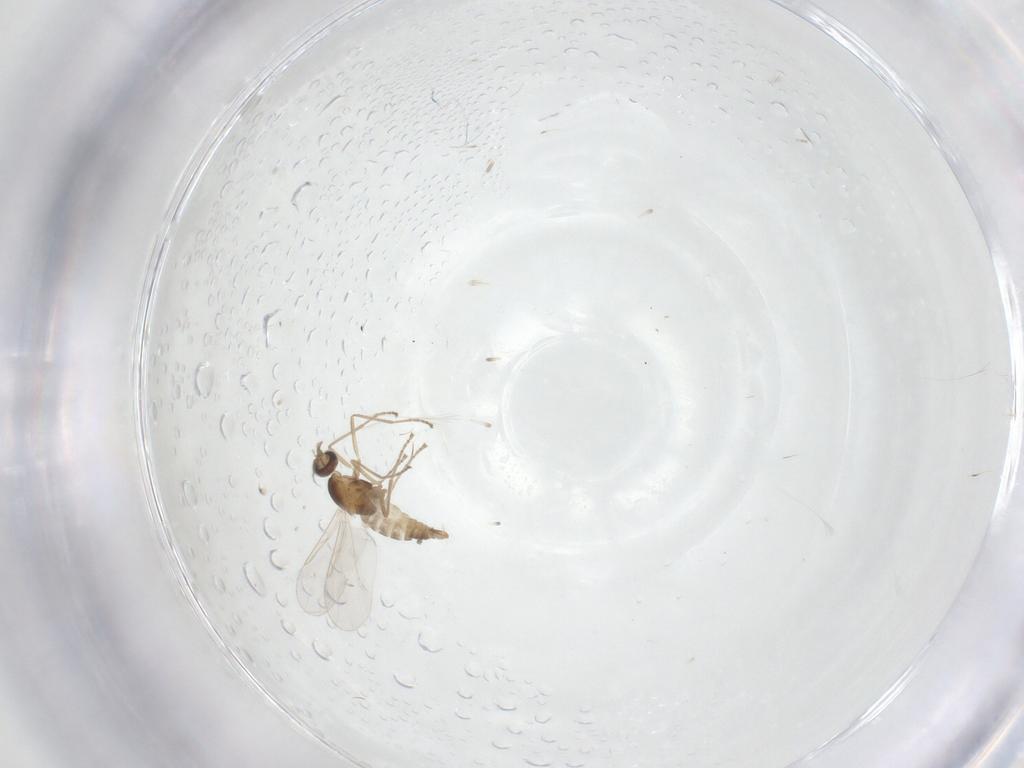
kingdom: Animalia
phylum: Arthropoda
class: Insecta
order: Diptera
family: Cecidomyiidae
